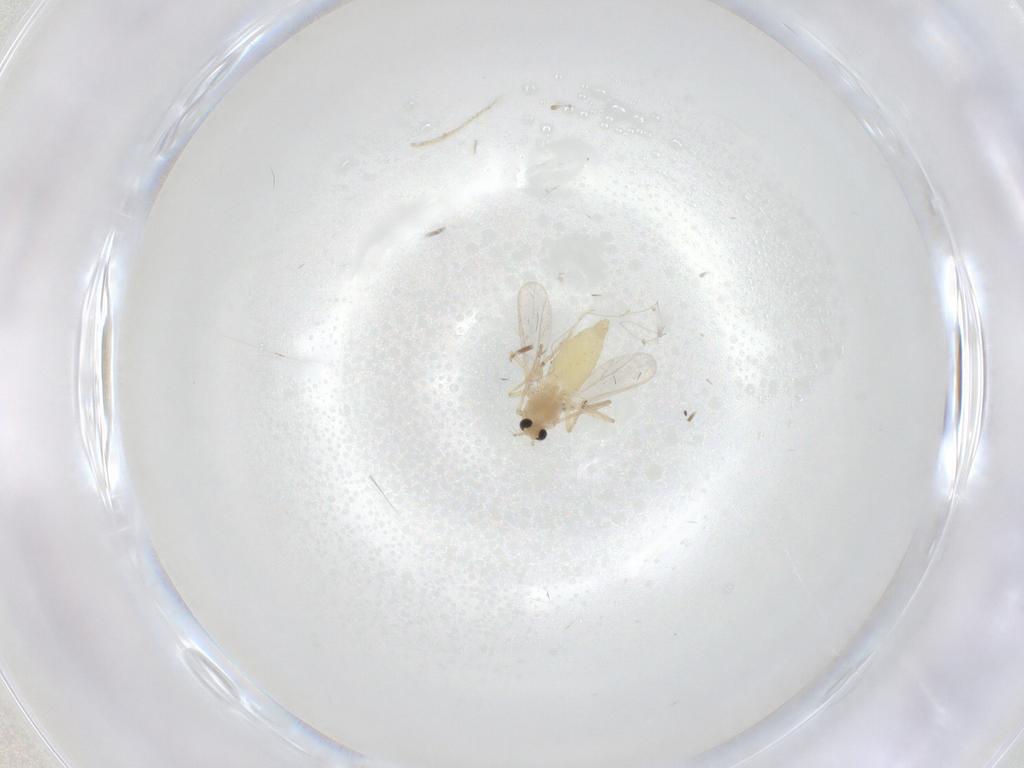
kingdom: Animalia
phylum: Arthropoda
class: Insecta
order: Diptera
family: Chironomidae
